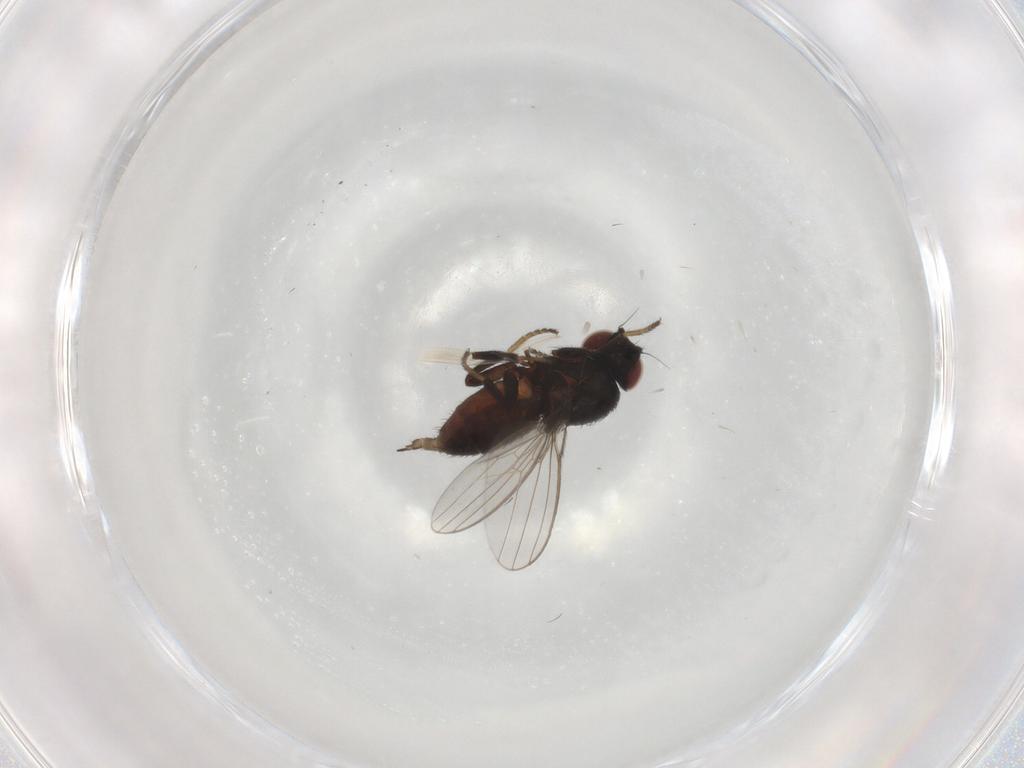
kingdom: Animalia
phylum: Arthropoda
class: Insecta
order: Diptera
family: Milichiidae
